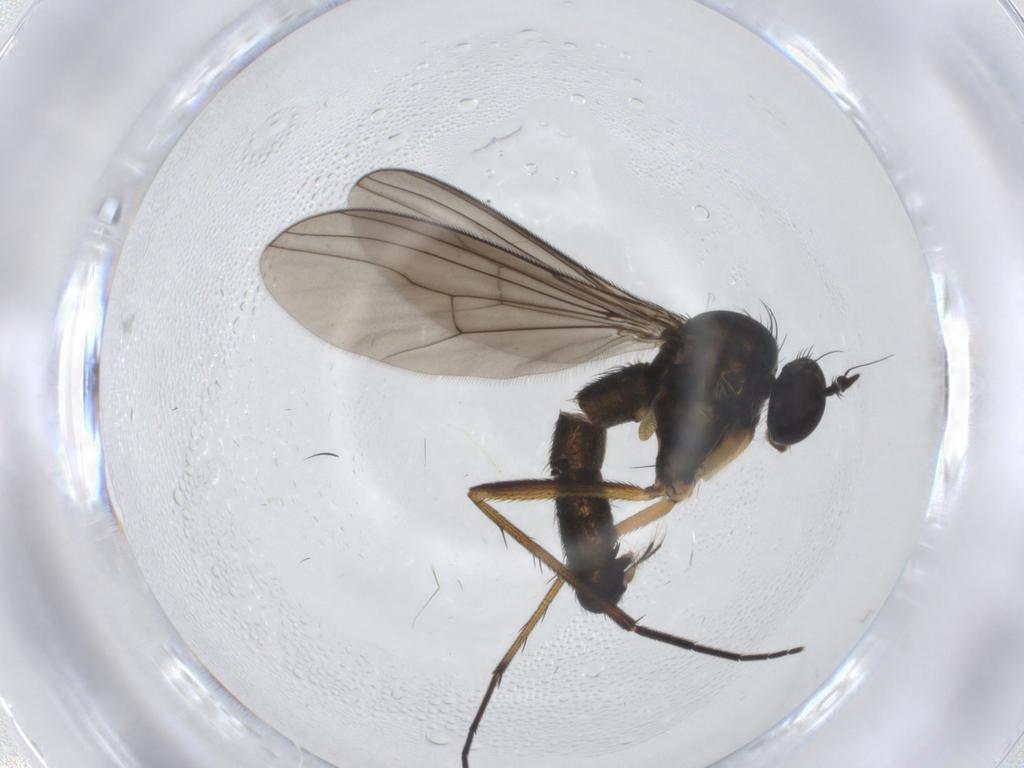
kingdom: Animalia
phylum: Arthropoda
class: Insecta
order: Diptera
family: Dolichopodidae
